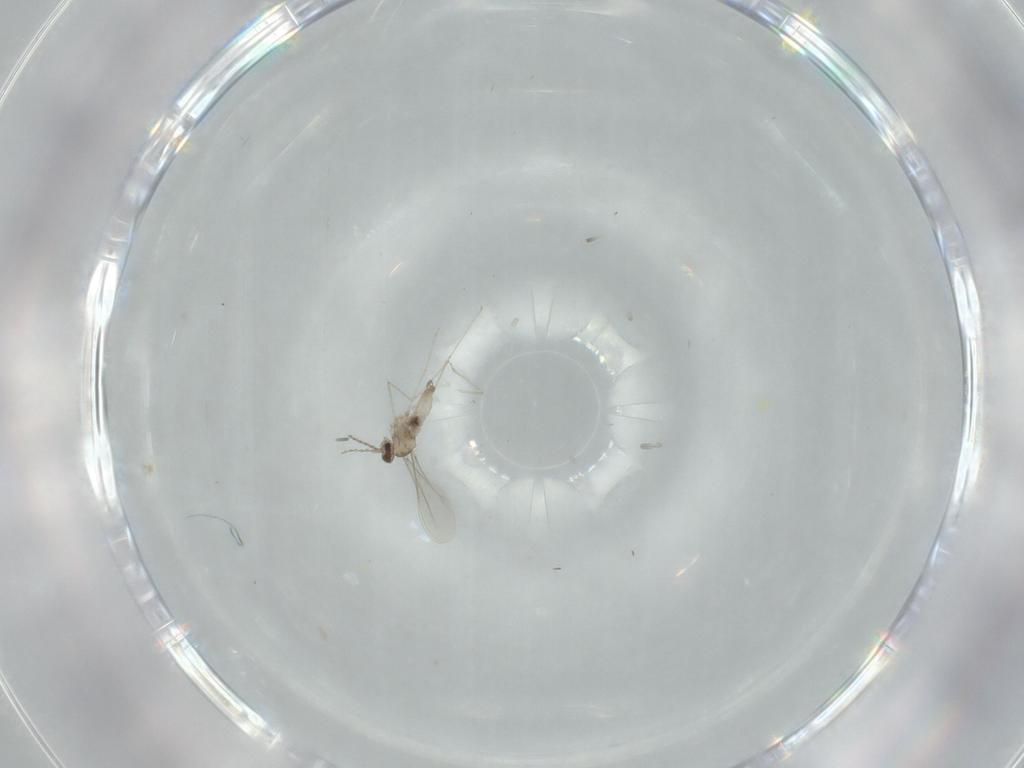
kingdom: Animalia
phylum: Arthropoda
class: Insecta
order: Diptera
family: Cecidomyiidae
